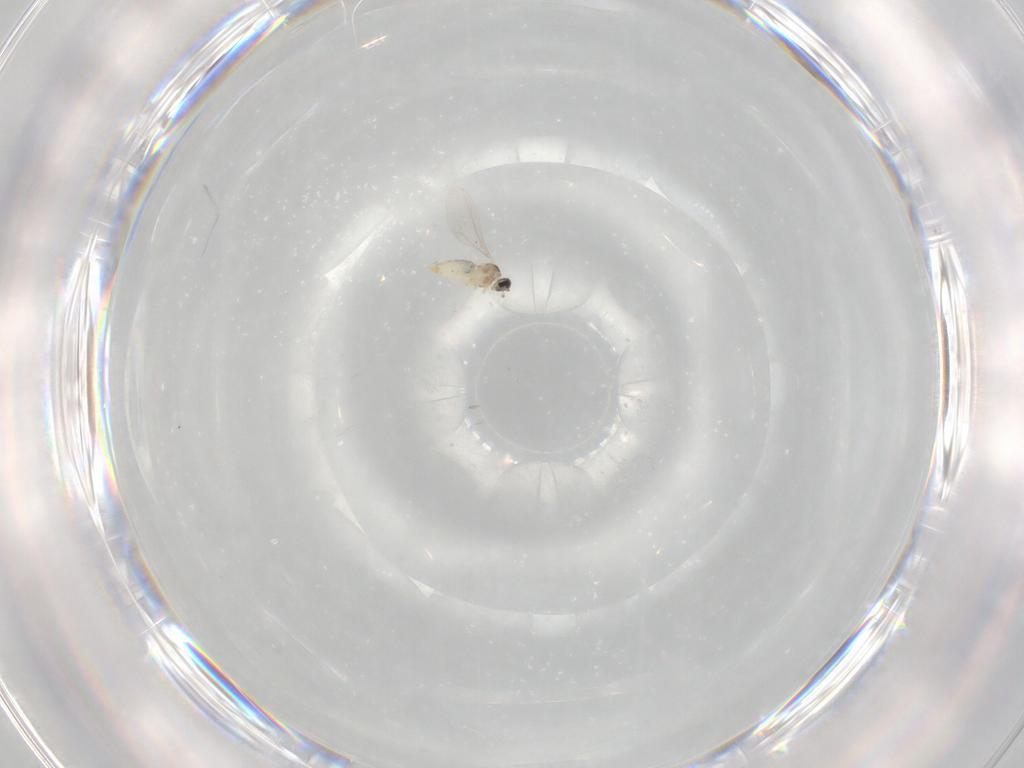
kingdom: Animalia
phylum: Arthropoda
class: Insecta
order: Diptera
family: Cecidomyiidae
